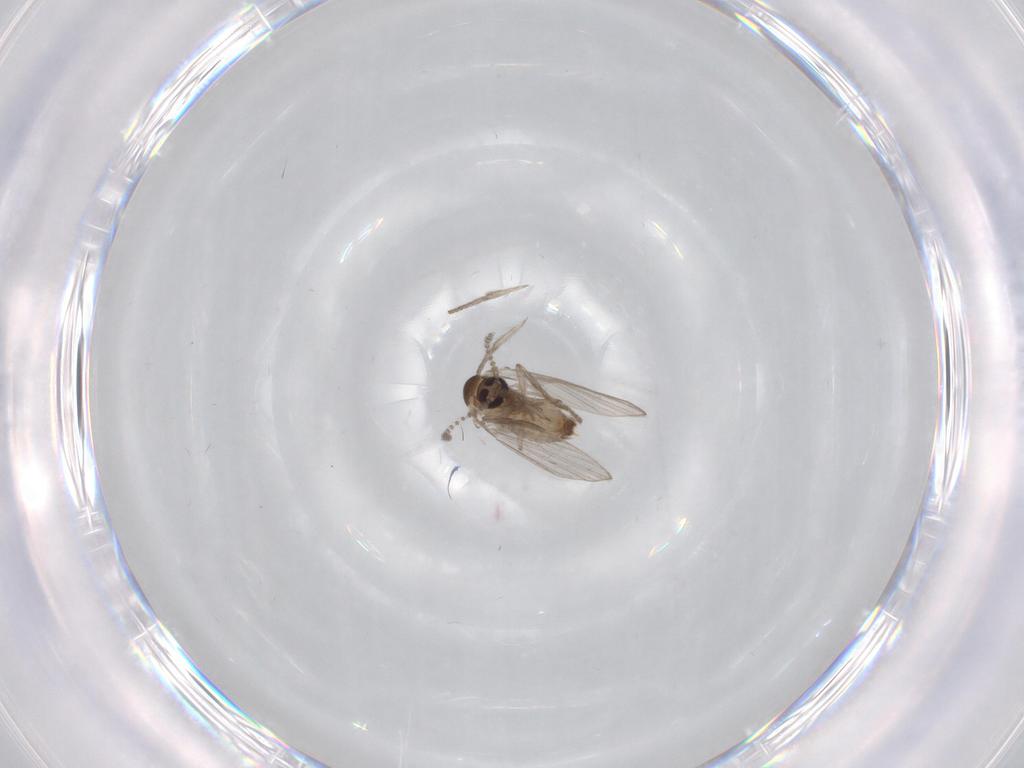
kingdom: Animalia
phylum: Arthropoda
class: Insecta
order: Diptera
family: Psychodidae
